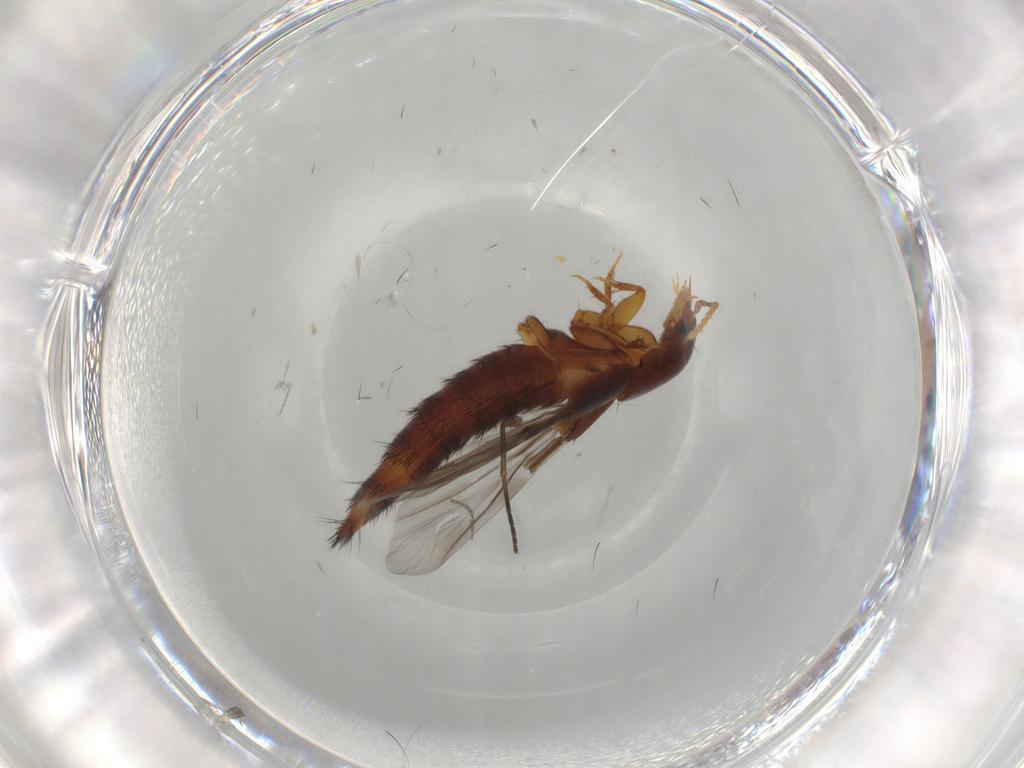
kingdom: Animalia
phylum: Arthropoda
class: Insecta
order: Coleoptera
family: Staphylinidae
